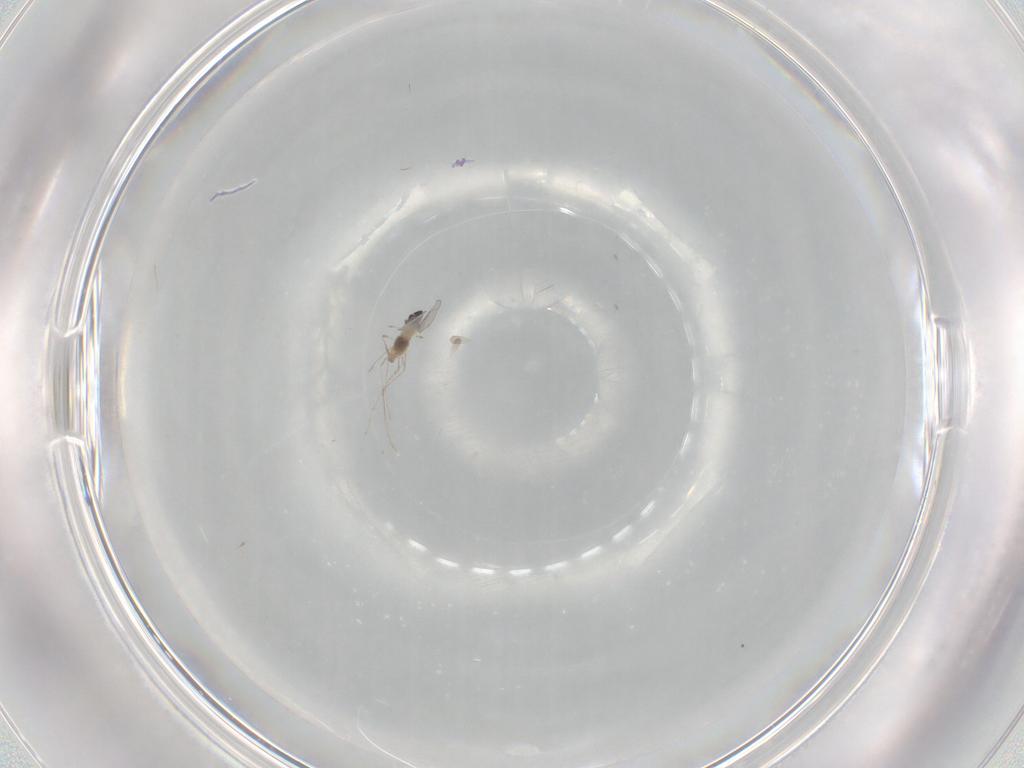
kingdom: Animalia
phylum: Arthropoda
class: Insecta
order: Diptera
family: Cecidomyiidae
